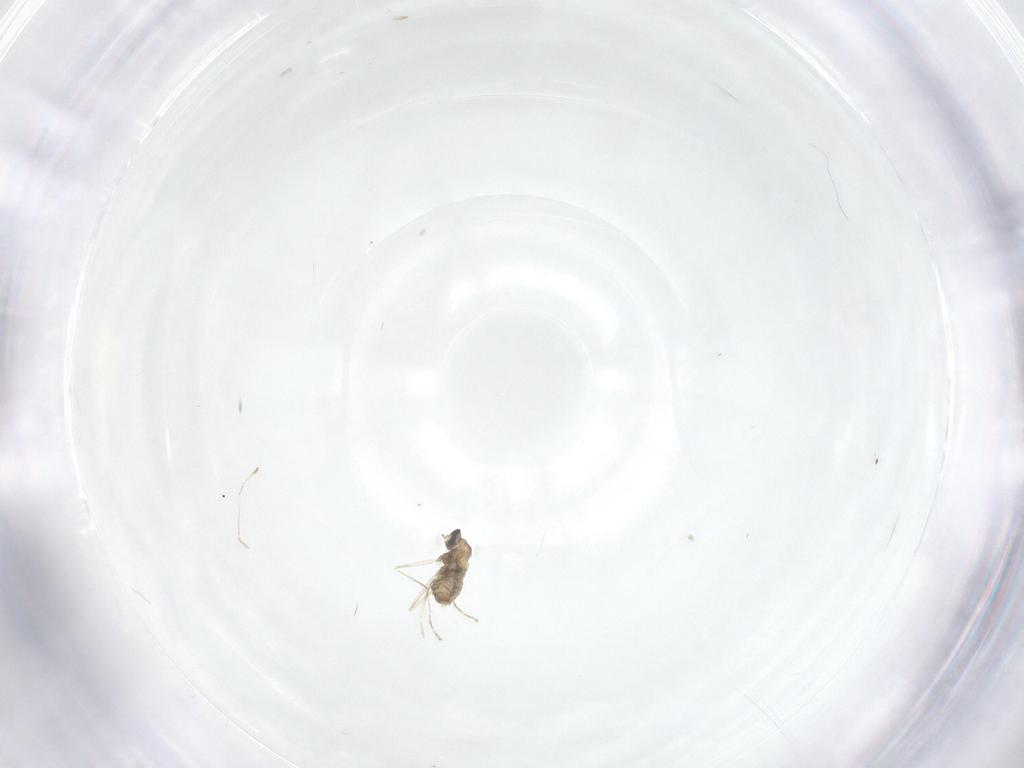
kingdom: Animalia
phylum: Arthropoda
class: Insecta
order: Diptera
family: Cecidomyiidae
